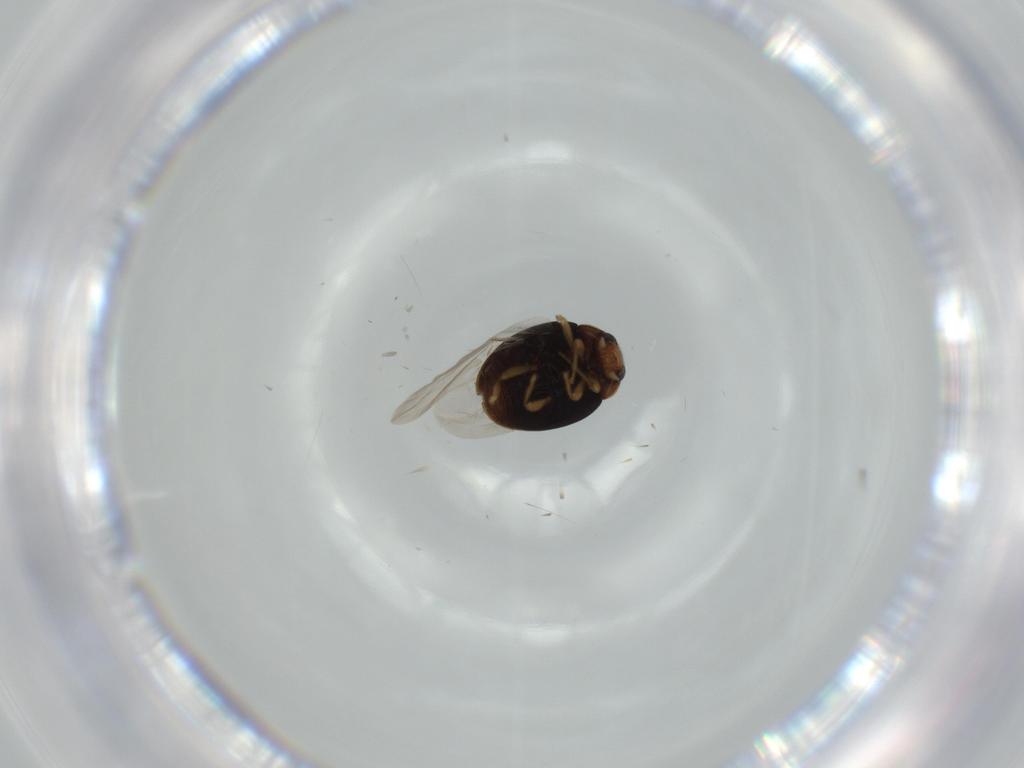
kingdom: Animalia
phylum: Arthropoda
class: Insecta
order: Coleoptera
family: Coccinellidae
